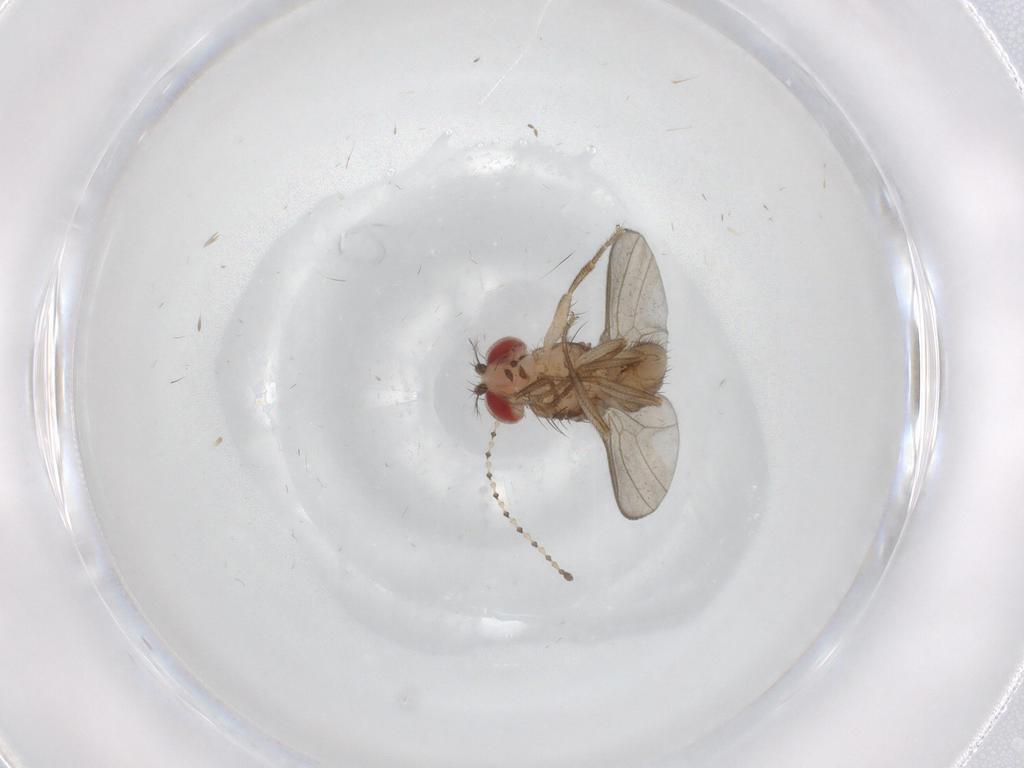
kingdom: Animalia
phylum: Arthropoda
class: Insecta
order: Diptera
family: Drosophilidae
